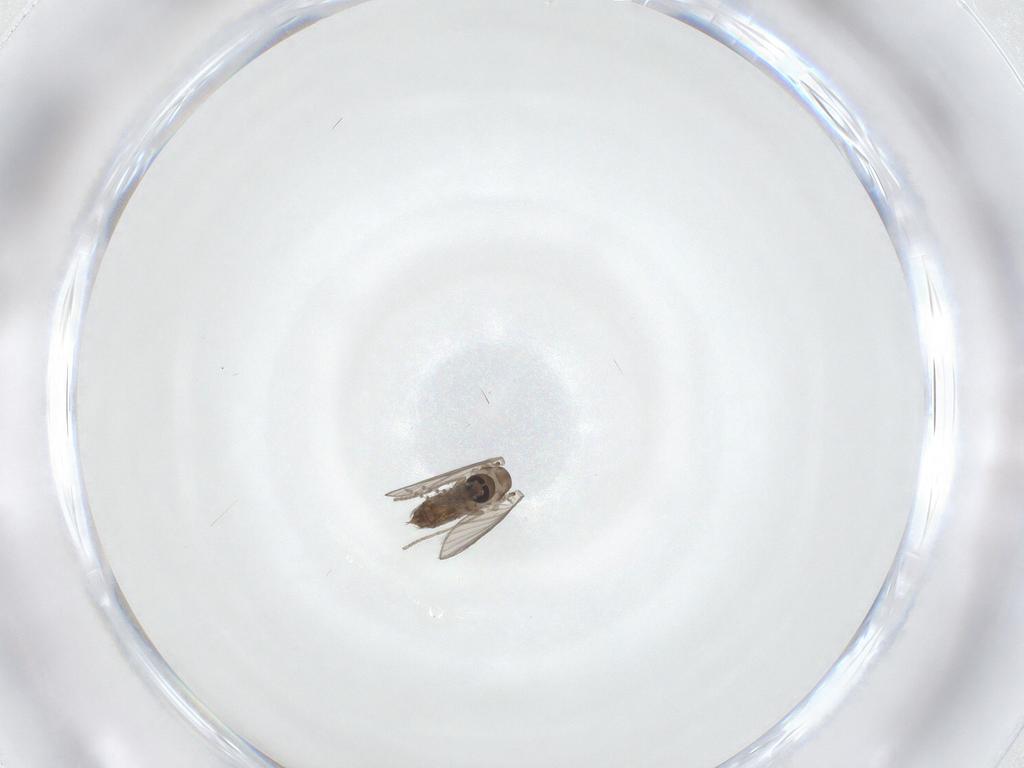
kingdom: Animalia
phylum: Arthropoda
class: Insecta
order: Diptera
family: Psychodidae
